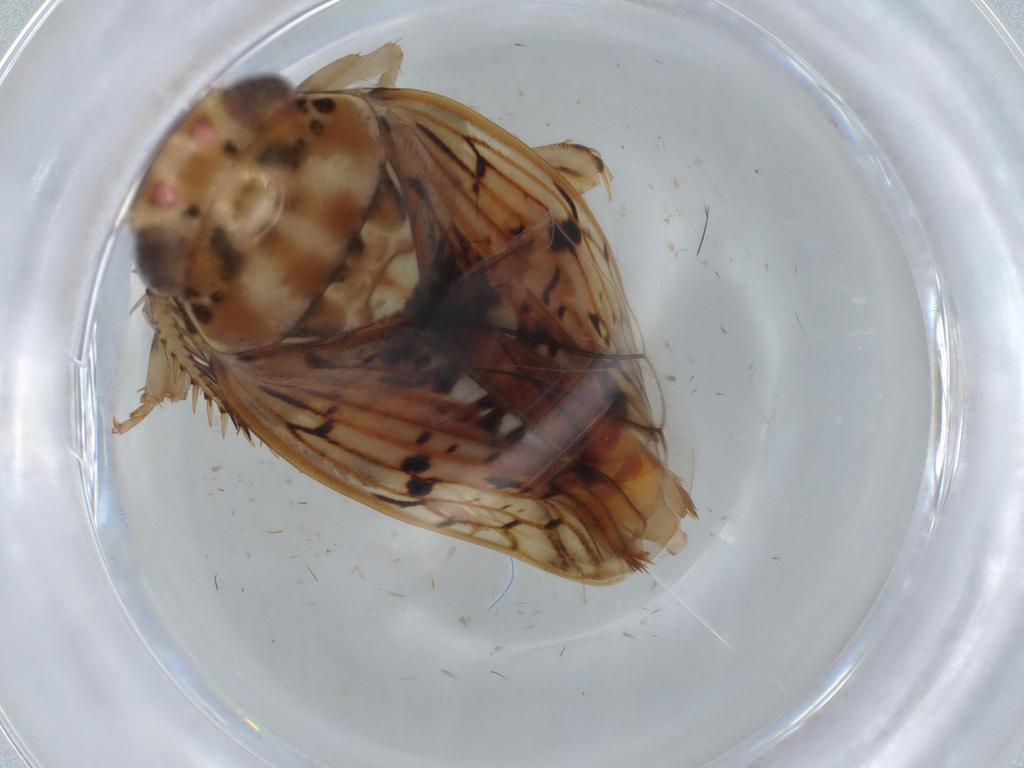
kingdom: Animalia
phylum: Arthropoda
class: Insecta
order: Hemiptera
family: Cicadellidae
